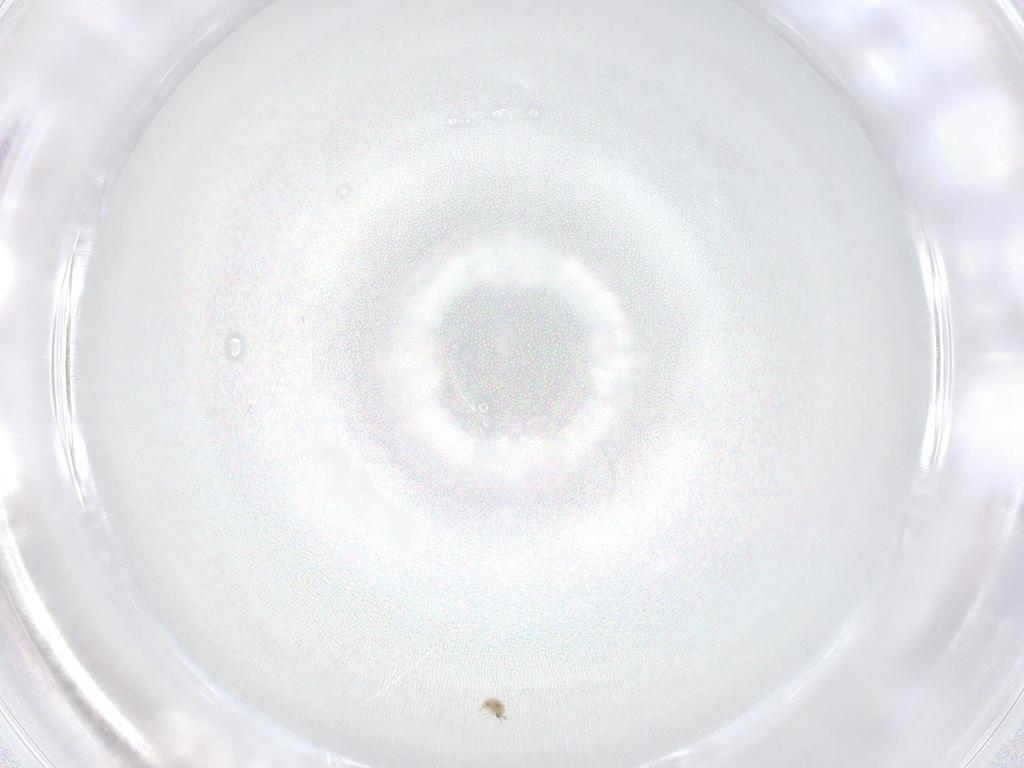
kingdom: Animalia
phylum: Arthropoda
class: Arachnida
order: Sarcoptiformes
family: Liacaridae
